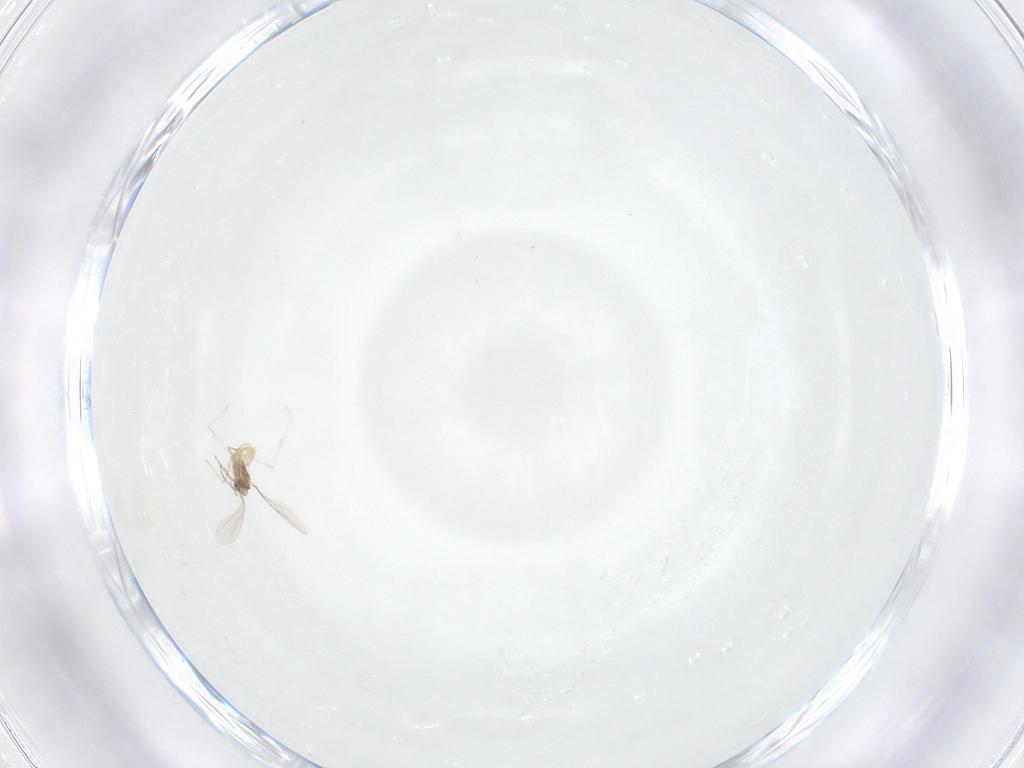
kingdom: Animalia
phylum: Arthropoda
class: Insecta
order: Diptera
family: Cecidomyiidae
